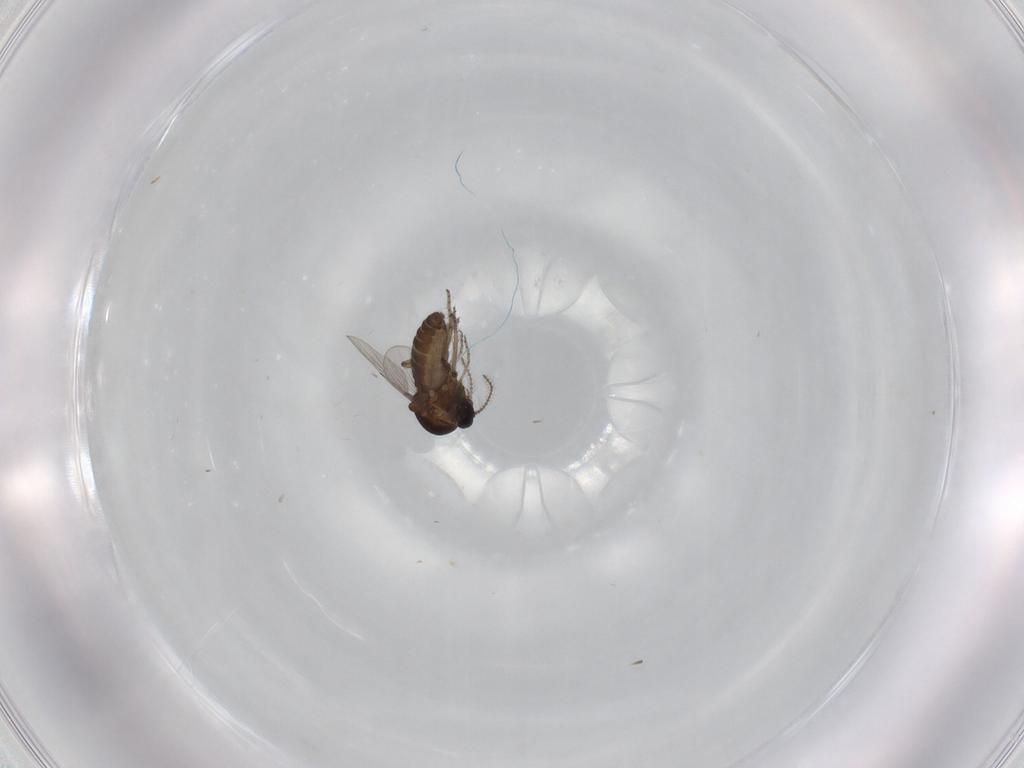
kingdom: Animalia
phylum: Arthropoda
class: Insecta
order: Diptera
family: Ceratopogonidae
